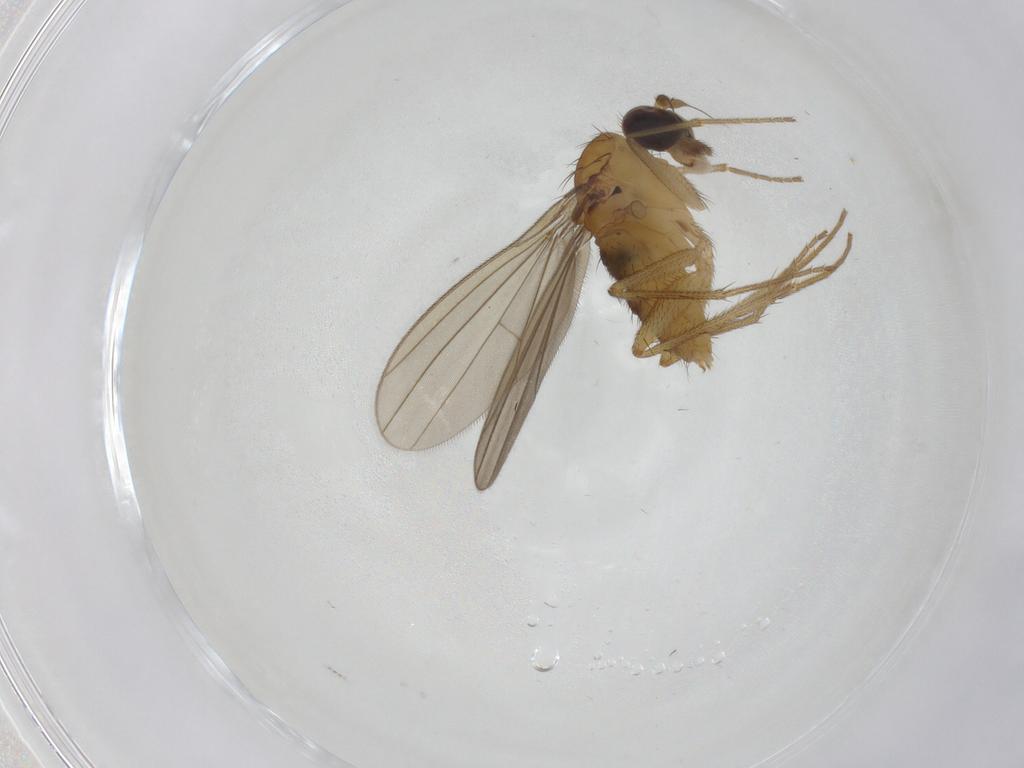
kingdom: Animalia
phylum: Arthropoda
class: Insecta
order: Diptera
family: Dolichopodidae
